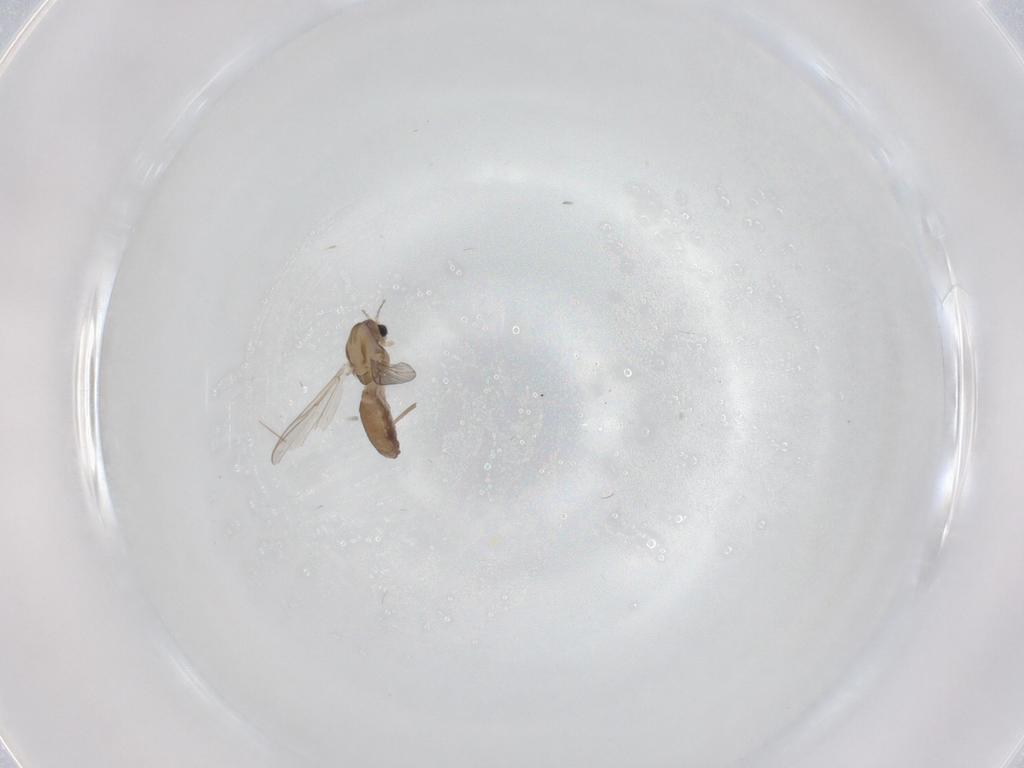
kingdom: Animalia
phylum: Arthropoda
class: Insecta
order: Diptera
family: Chironomidae
